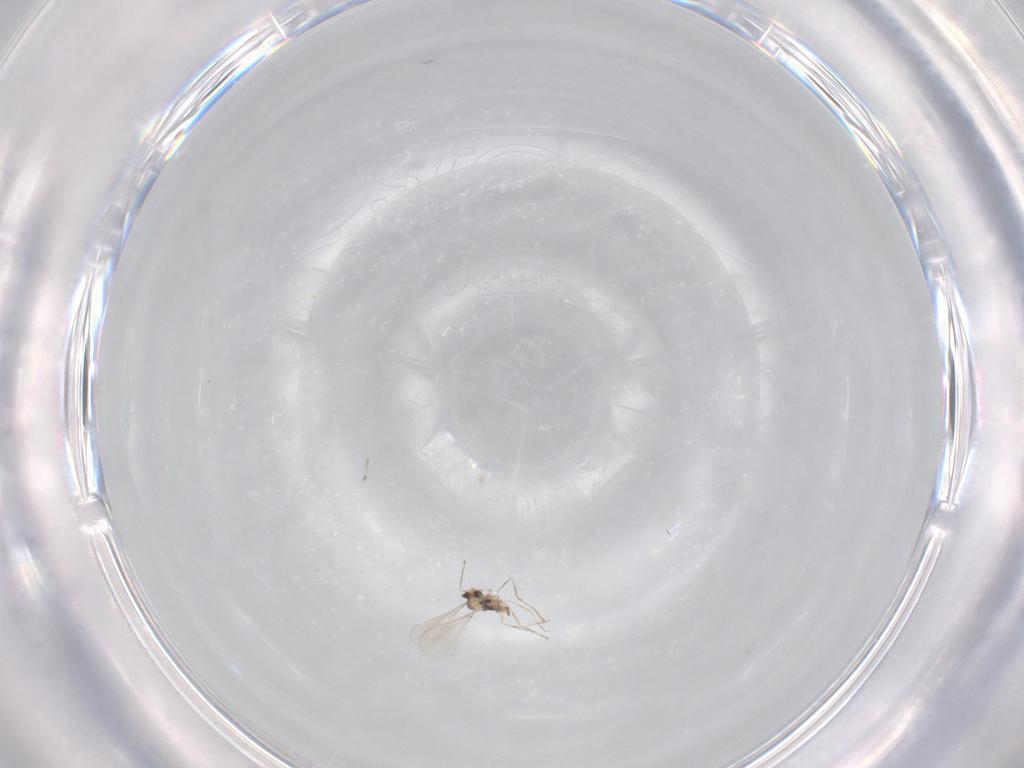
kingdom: Animalia
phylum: Arthropoda
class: Insecta
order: Diptera
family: Cecidomyiidae
